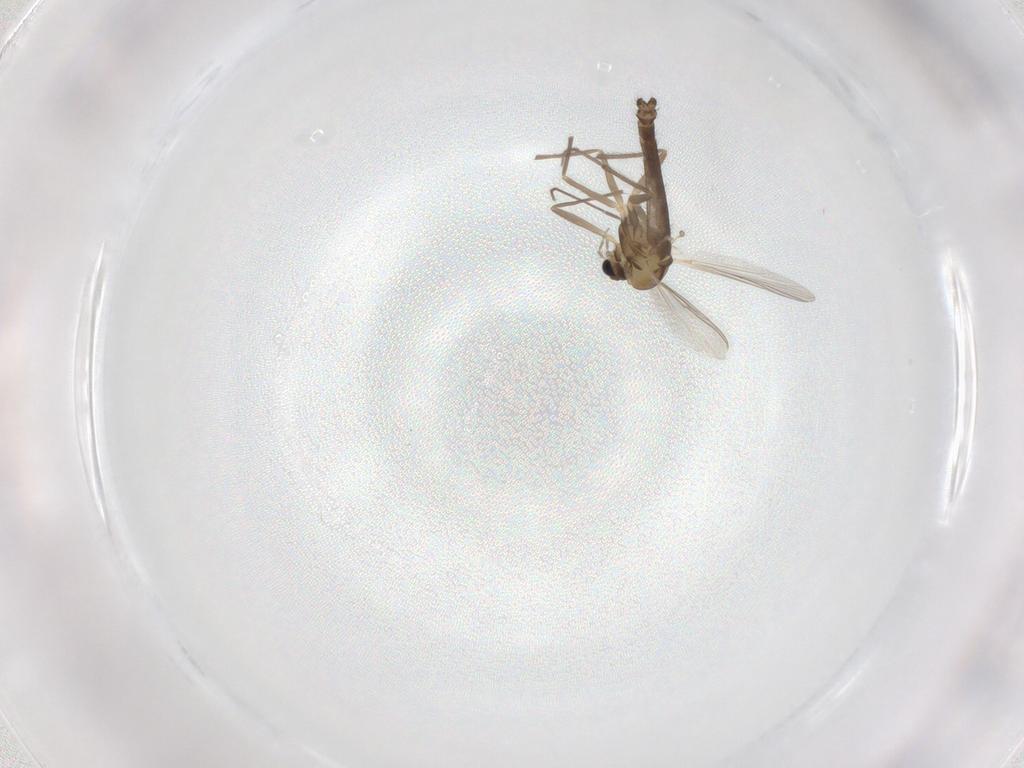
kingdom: Animalia
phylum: Arthropoda
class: Insecta
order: Diptera
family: Chironomidae
